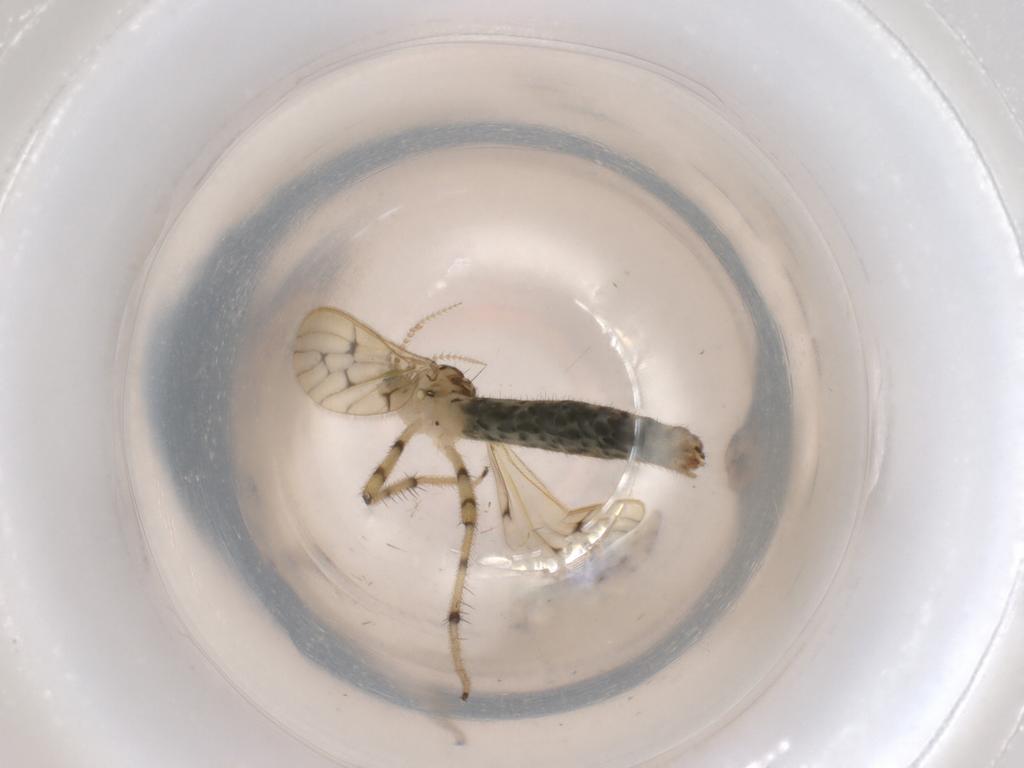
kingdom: Animalia
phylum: Arthropoda
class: Insecta
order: Diptera
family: Limoniidae
